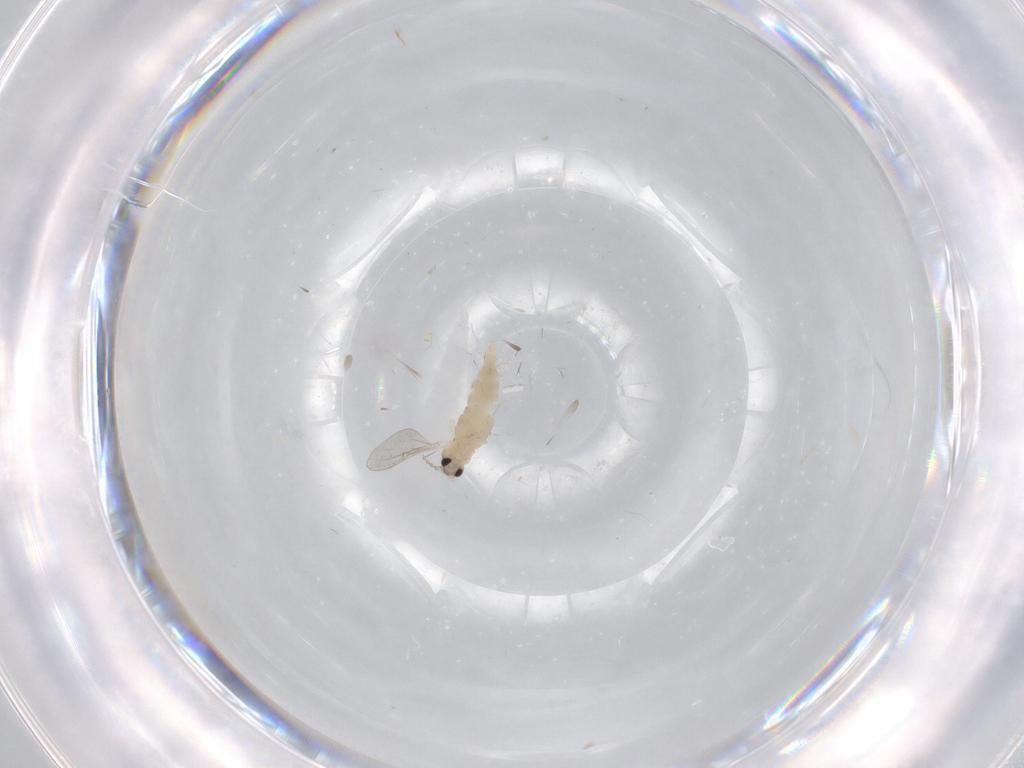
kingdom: Animalia
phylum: Arthropoda
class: Insecta
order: Diptera
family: Cecidomyiidae
